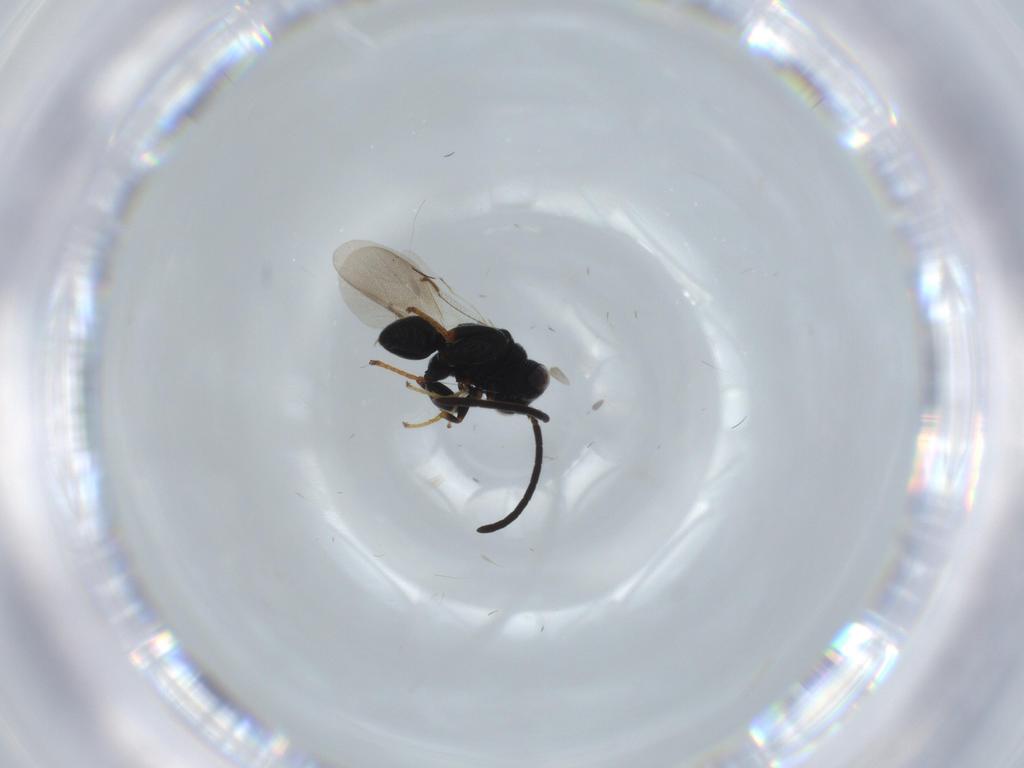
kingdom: Animalia
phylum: Arthropoda
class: Insecta
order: Hymenoptera
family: Bethylidae
